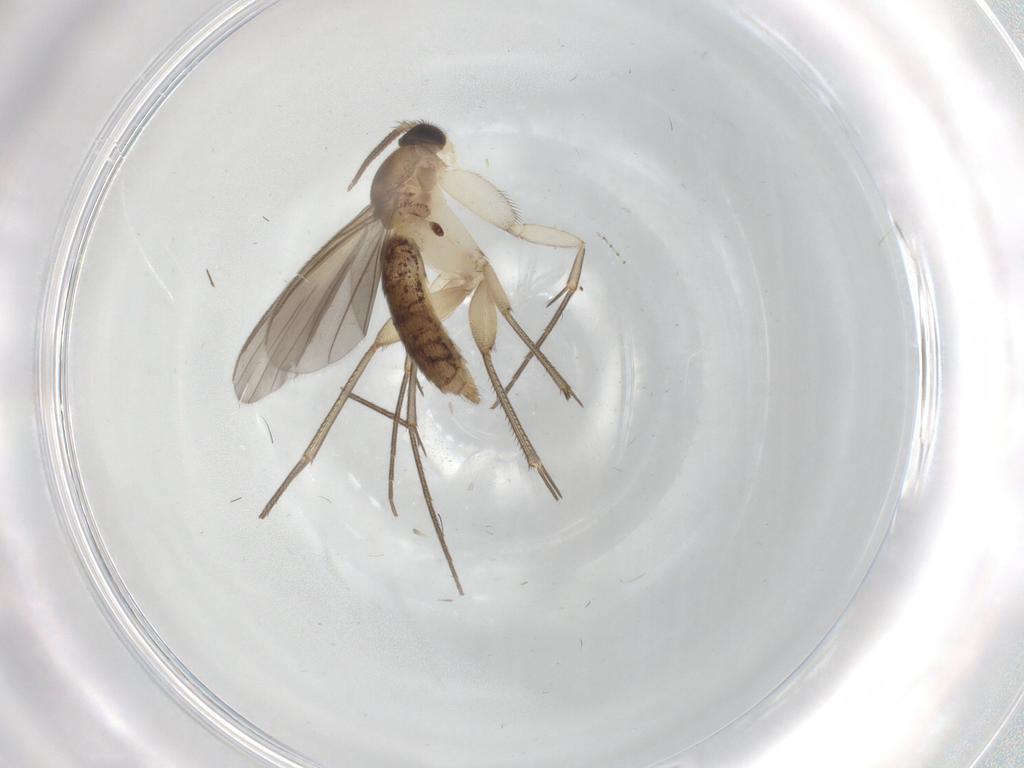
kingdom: Animalia
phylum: Arthropoda
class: Insecta
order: Diptera
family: Mycetophilidae
